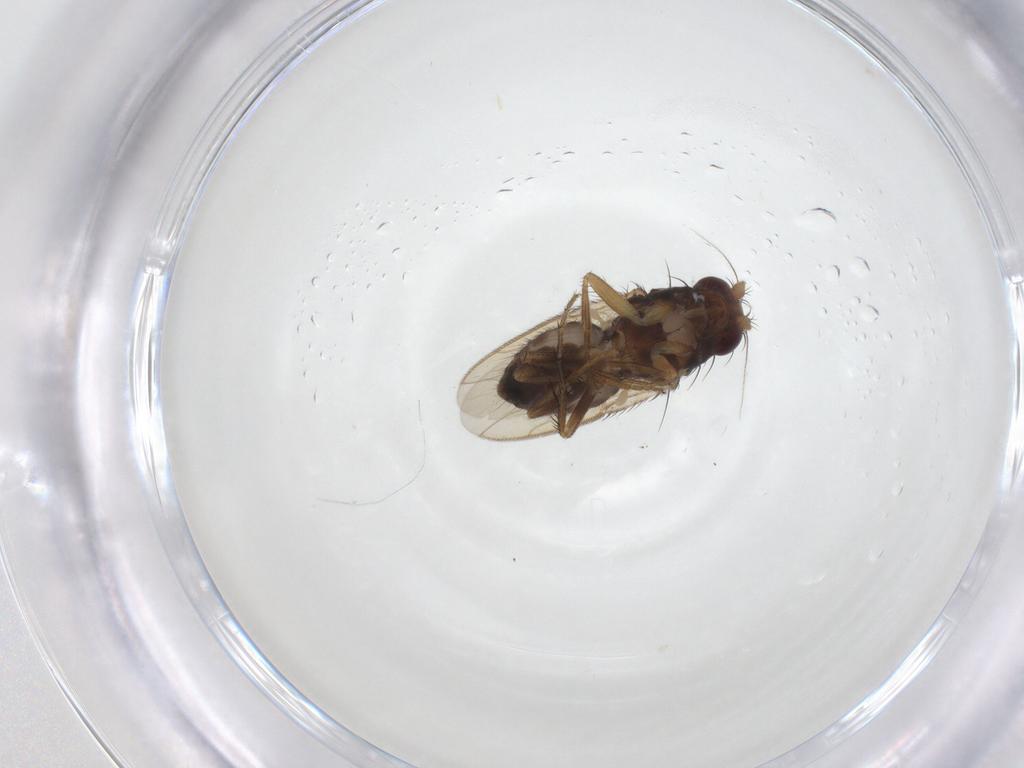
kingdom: Animalia
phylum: Arthropoda
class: Insecta
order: Diptera
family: Sphaeroceridae
